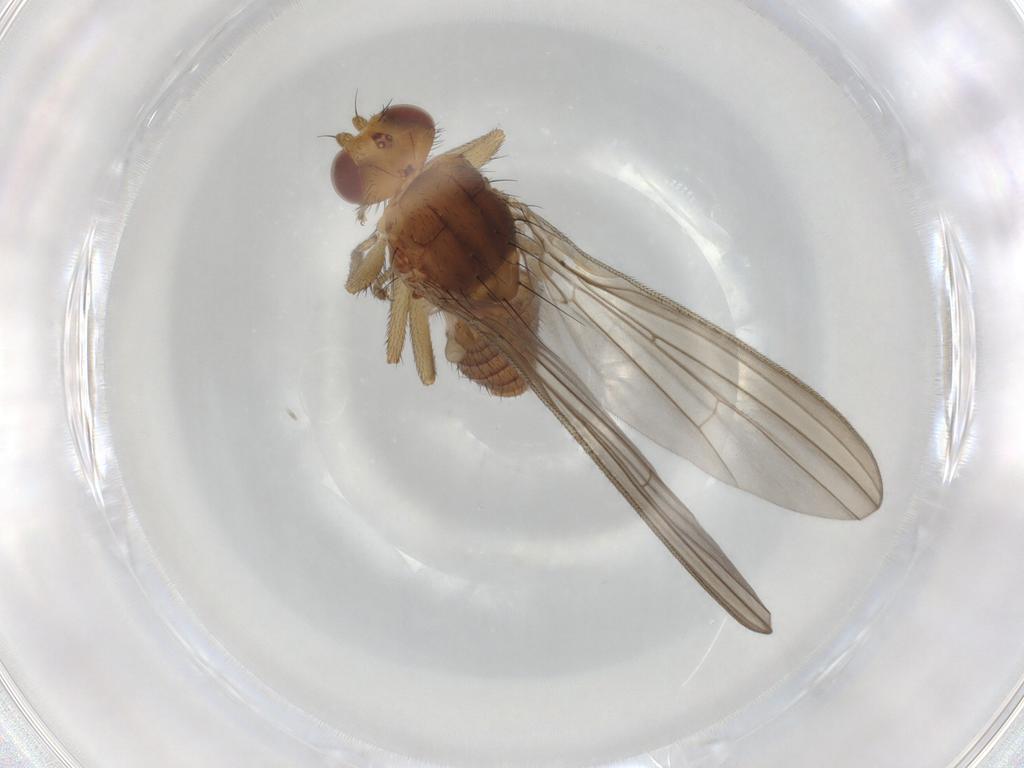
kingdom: Animalia
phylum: Arthropoda
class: Insecta
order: Diptera
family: Natalimyzidae
